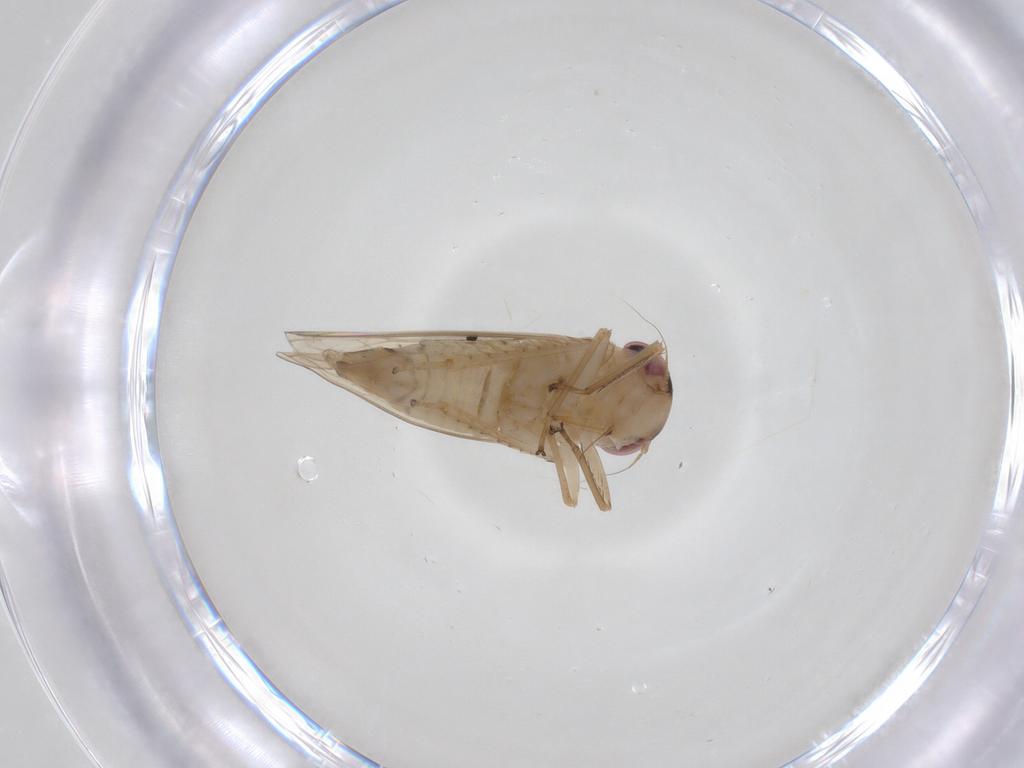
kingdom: Animalia
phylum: Arthropoda
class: Insecta
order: Hemiptera
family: Cicadellidae
